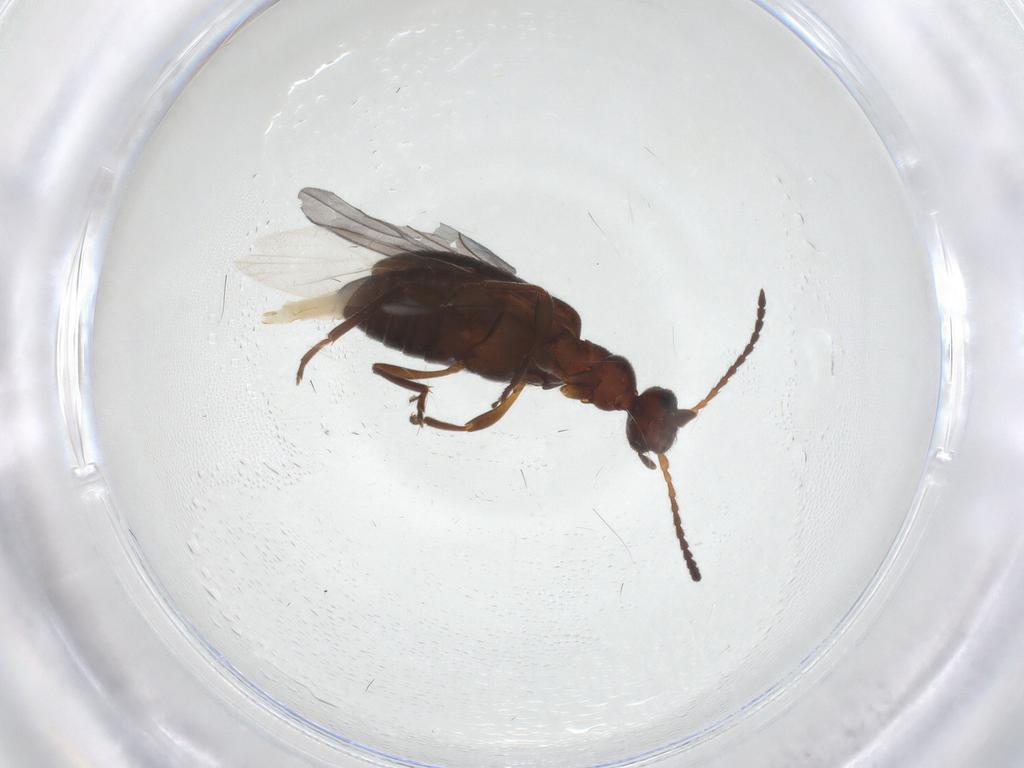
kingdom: Animalia
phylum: Arthropoda
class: Insecta
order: Coleoptera
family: Anthicidae
